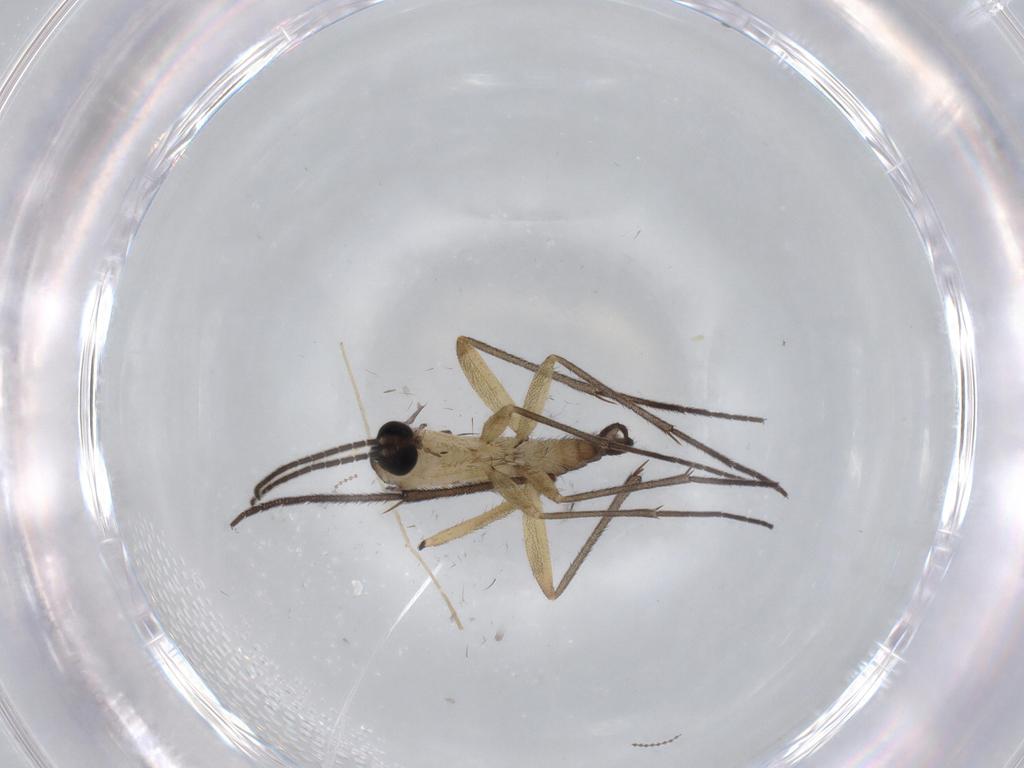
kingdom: Animalia
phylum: Arthropoda
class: Insecta
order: Diptera
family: Sciaridae
